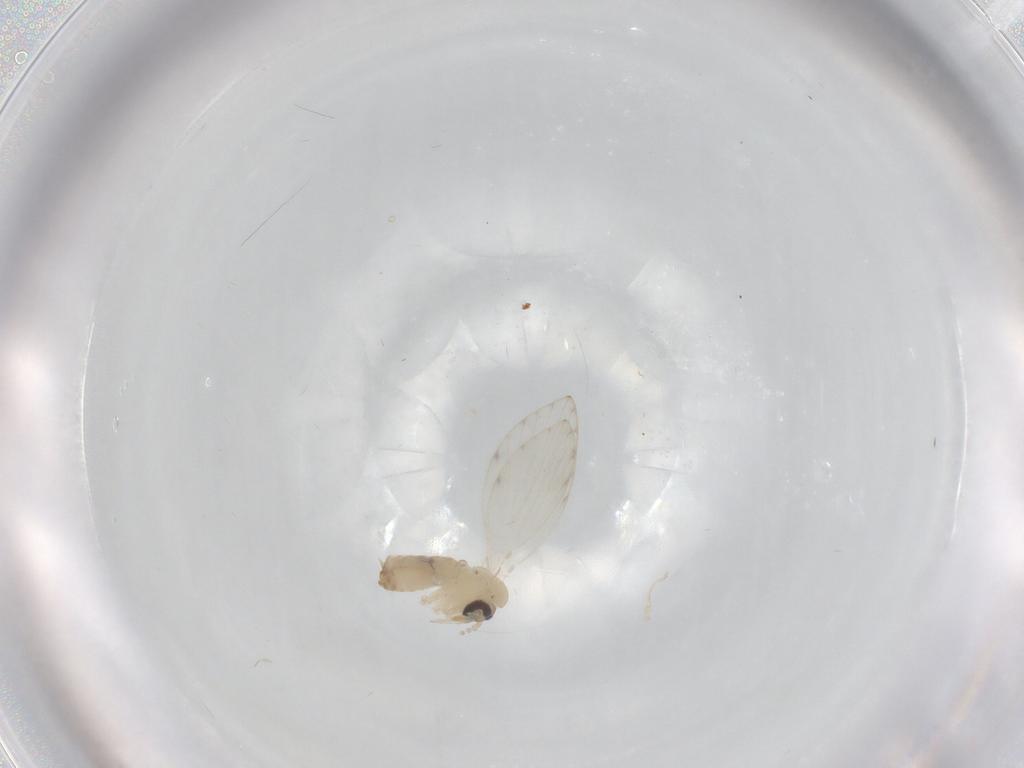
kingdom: Animalia
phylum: Arthropoda
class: Insecta
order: Diptera
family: Psychodidae
